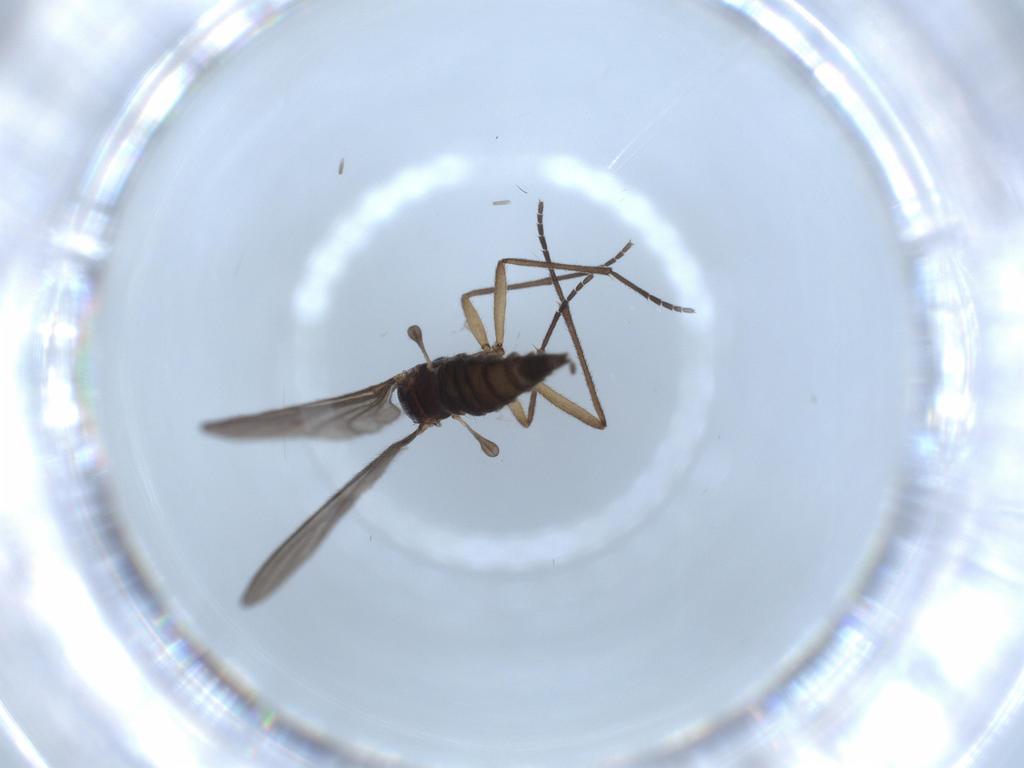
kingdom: Animalia
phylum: Arthropoda
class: Insecta
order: Diptera
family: Sciaridae
